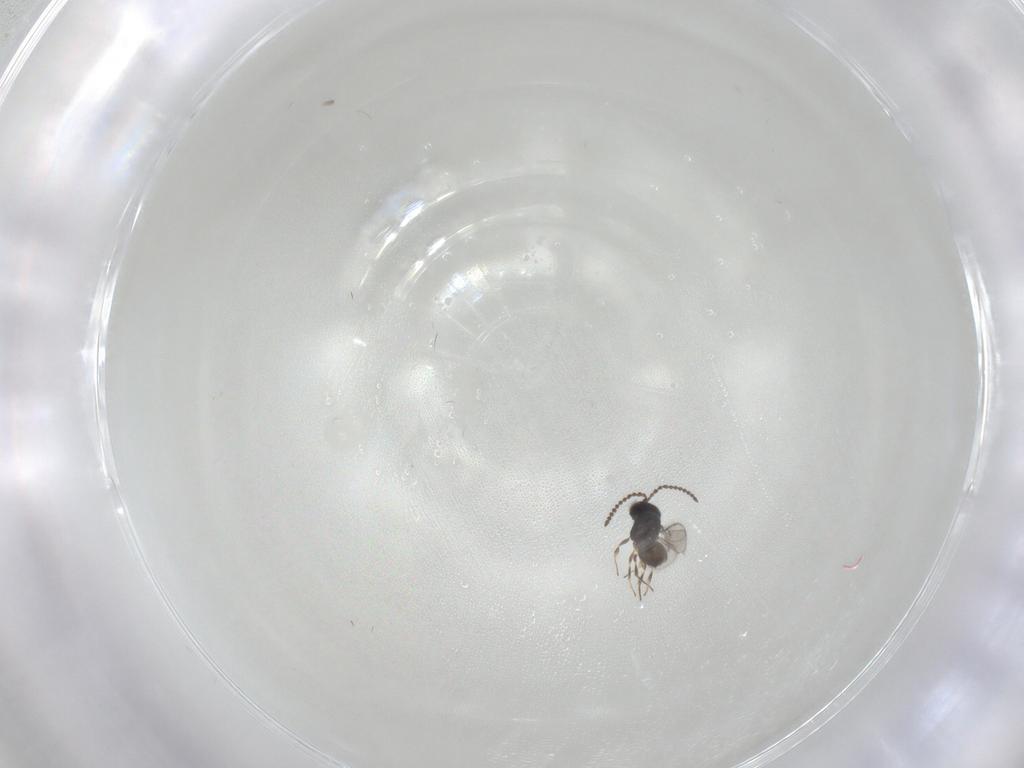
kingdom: Animalia
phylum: Arthropoda
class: Insecta
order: Hymenoptera
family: Scelionidae
